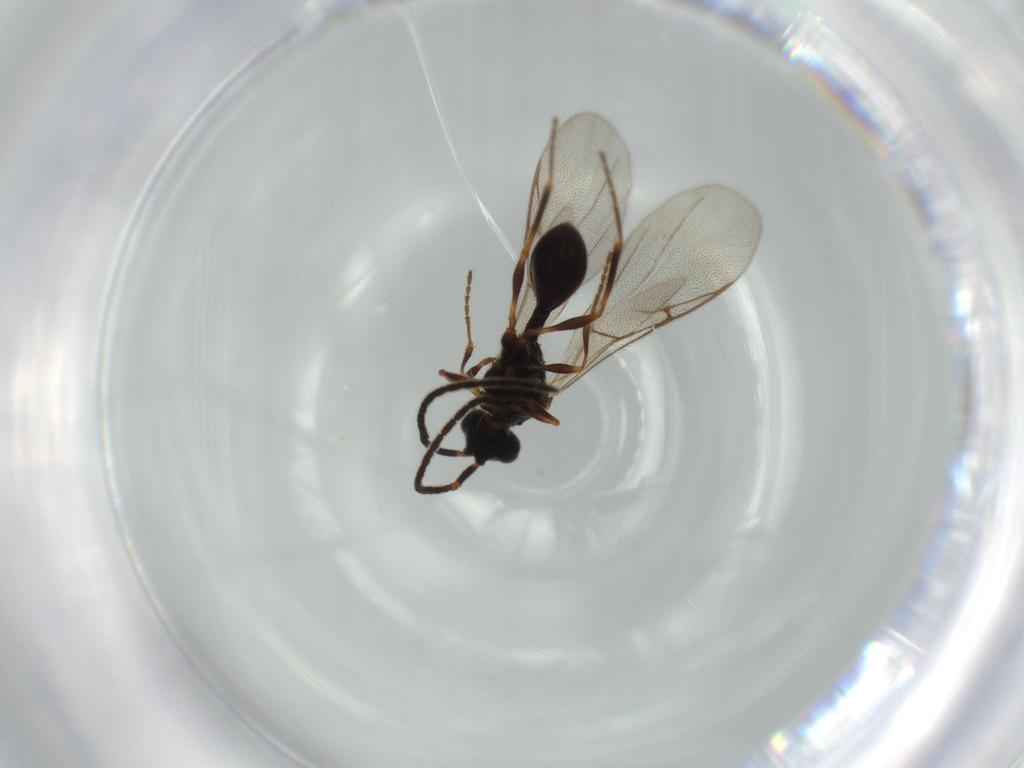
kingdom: Animalia
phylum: Arthropoda
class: Insecta
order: Hymenoptera
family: Diapriidae
